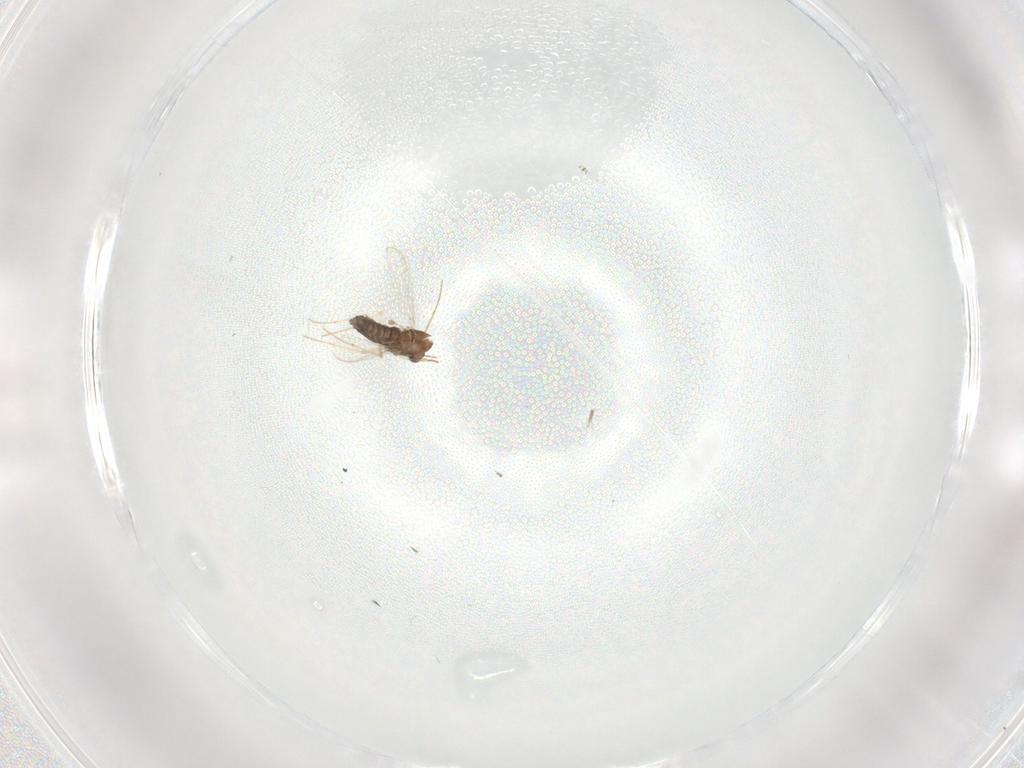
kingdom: Animalia
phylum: Arthropoda
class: Insecta
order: Diptera
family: Chironomidae
